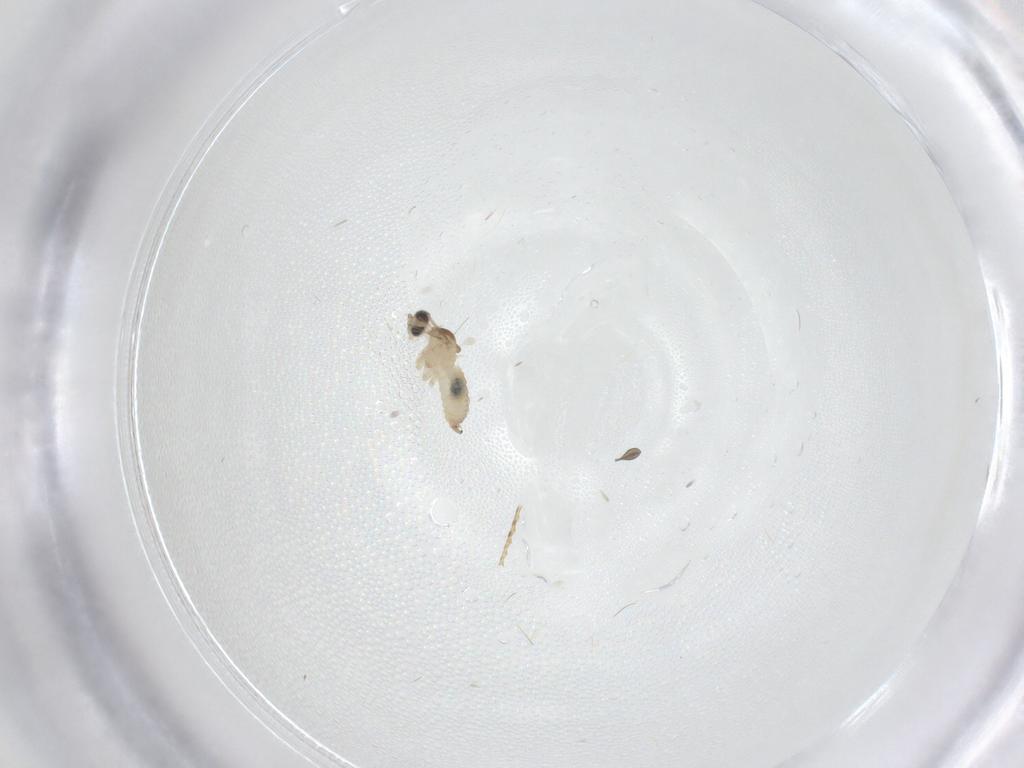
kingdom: Animalia
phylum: Arthropoda
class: Insecta
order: Diptera
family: Cecidomyiidae
